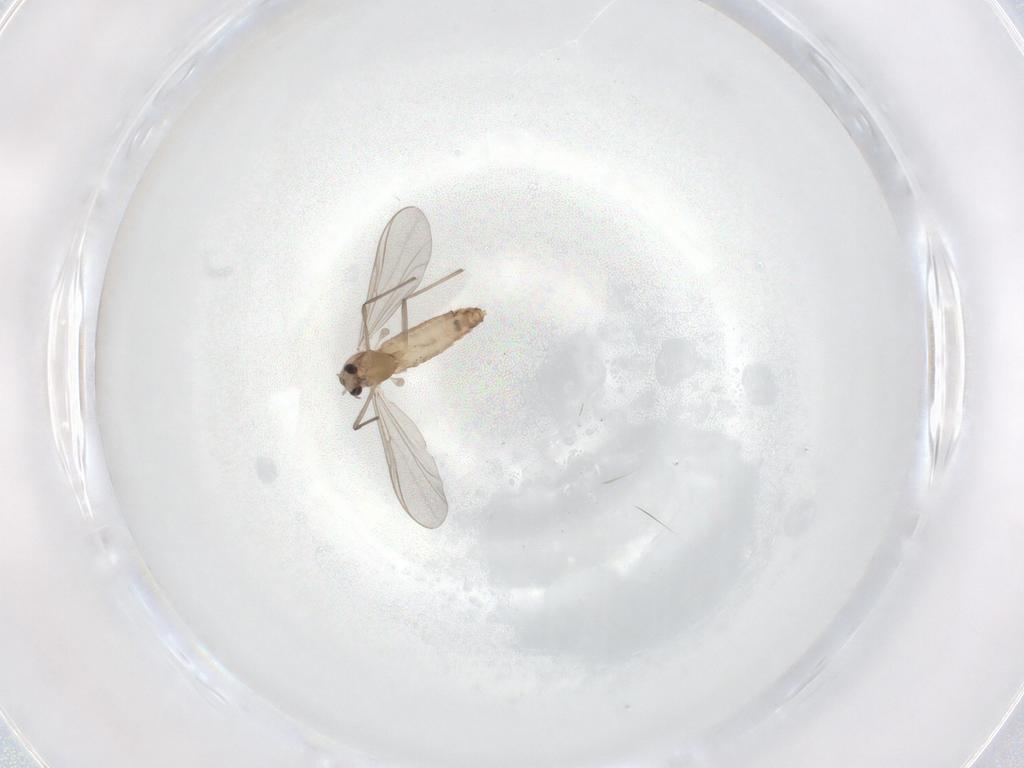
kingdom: Animalia
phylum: Arthropoda
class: Insecta
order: Diptera
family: Chironomidae
